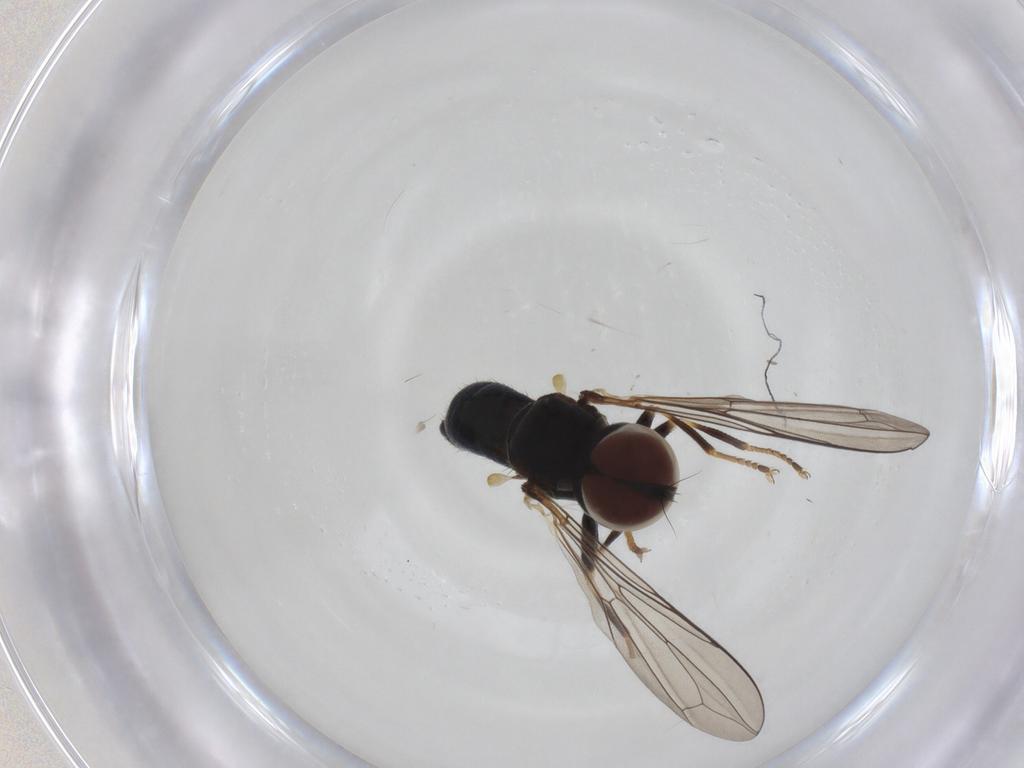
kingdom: Animalia
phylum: Arthropoda
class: Insecta
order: Diptera
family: Pipunculidae
